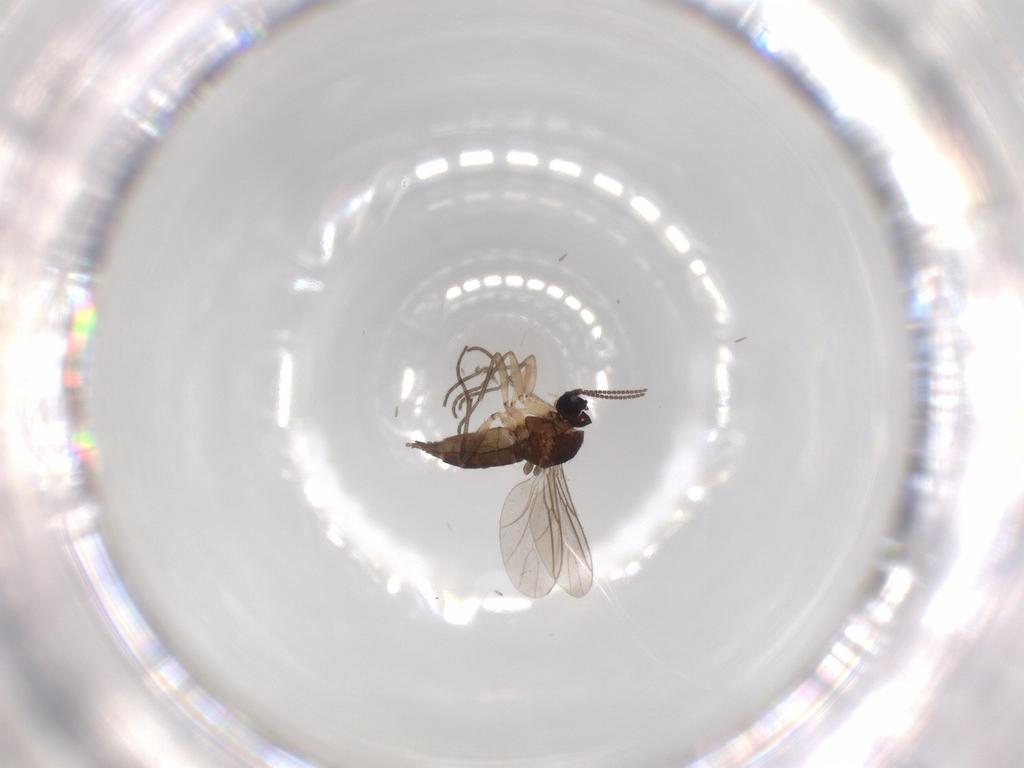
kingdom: Animalia
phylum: Arthropoda
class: Insecta
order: Diptera
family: Sciaridae
